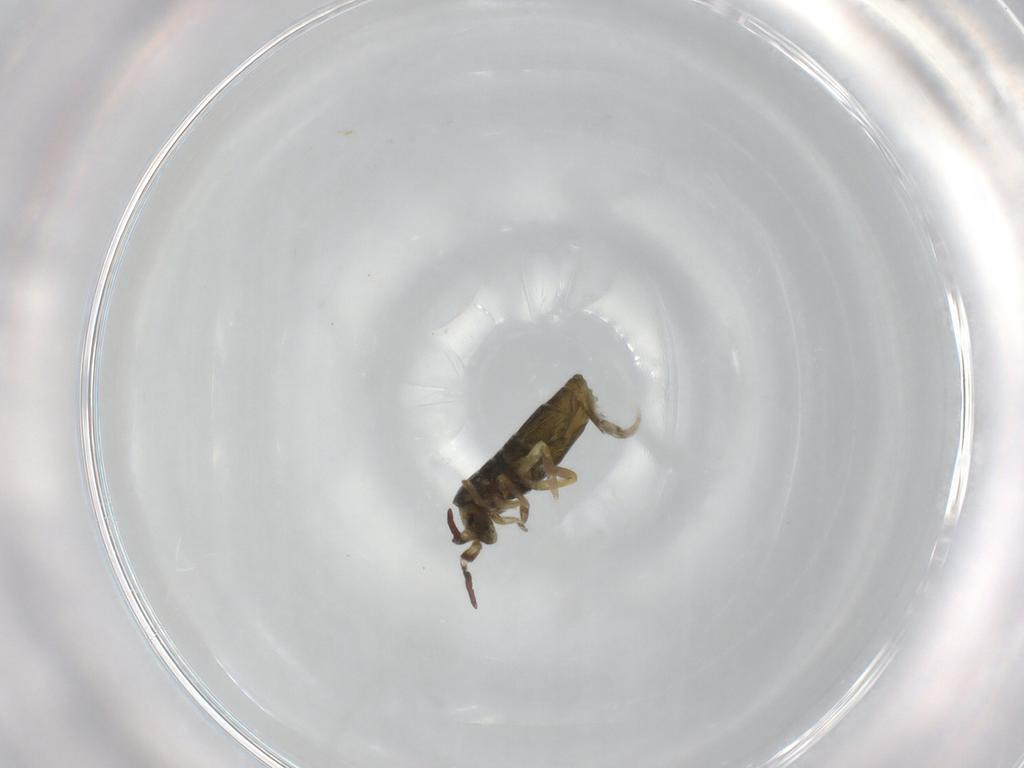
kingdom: Animalia
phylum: Arthropoda
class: Collembola
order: Entomobryomorpha
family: Tomoceridae
